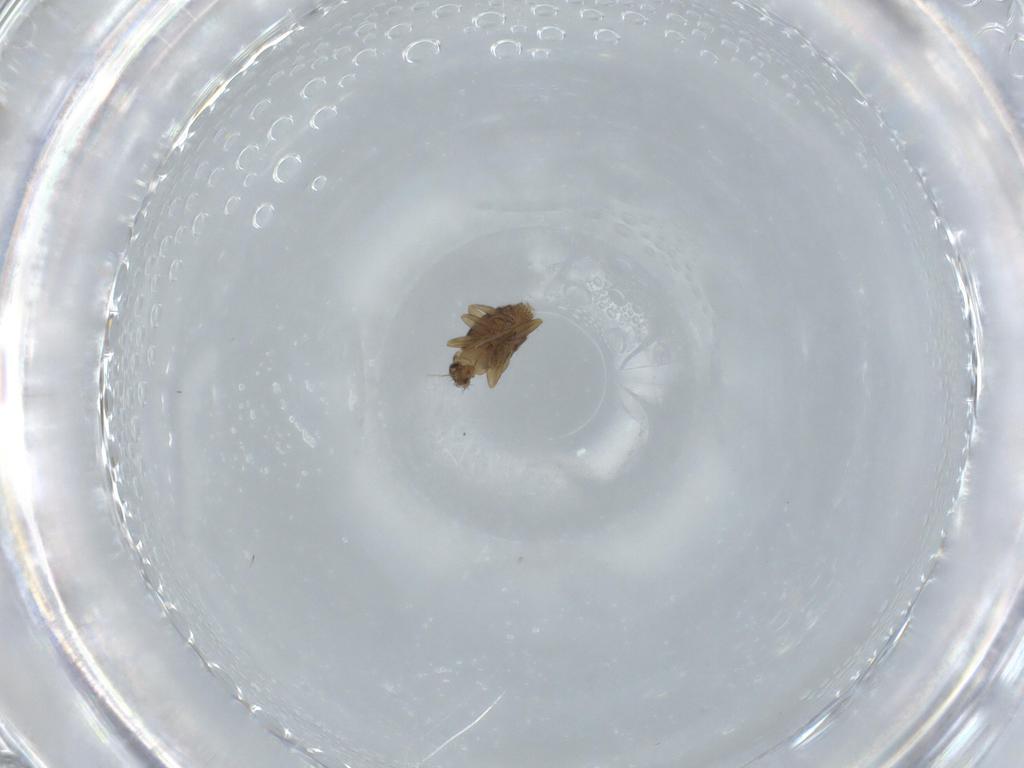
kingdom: Animalia
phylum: Arthropoda
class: Insecta
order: Diptera
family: Phoridae
